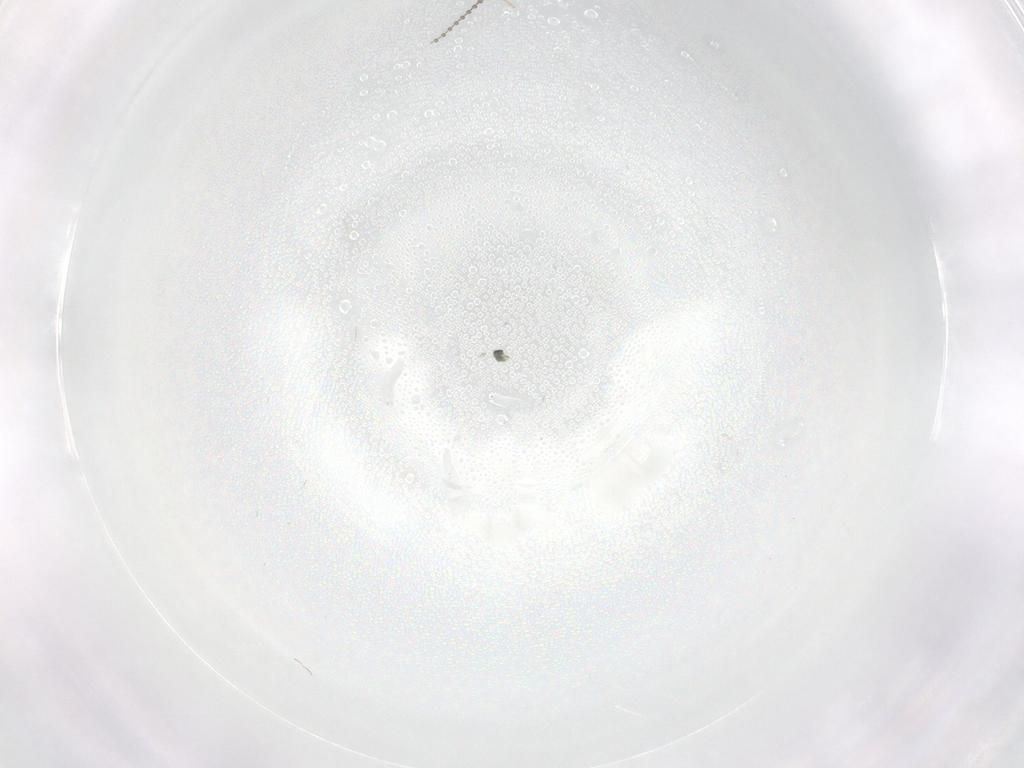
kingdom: Animalia
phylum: Arthropoda
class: Insecta
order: Diptera
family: Cecidomyiidae
